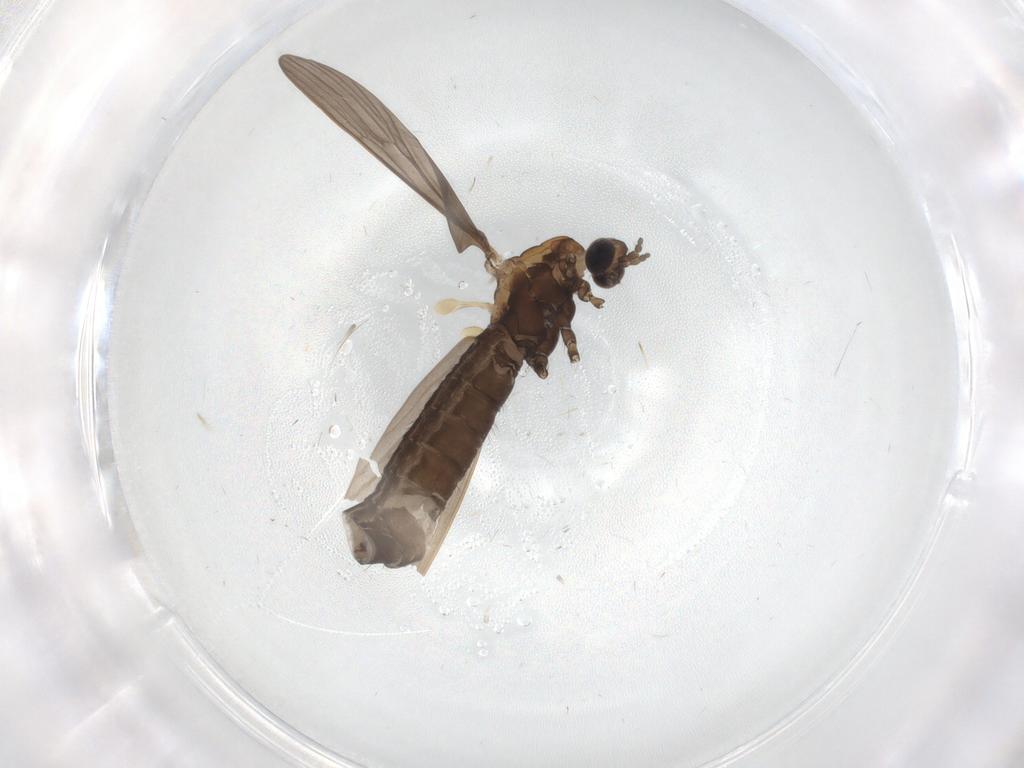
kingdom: Animalia
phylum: Arthropoda
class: Insecta
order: Diptera
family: Limoniidae
